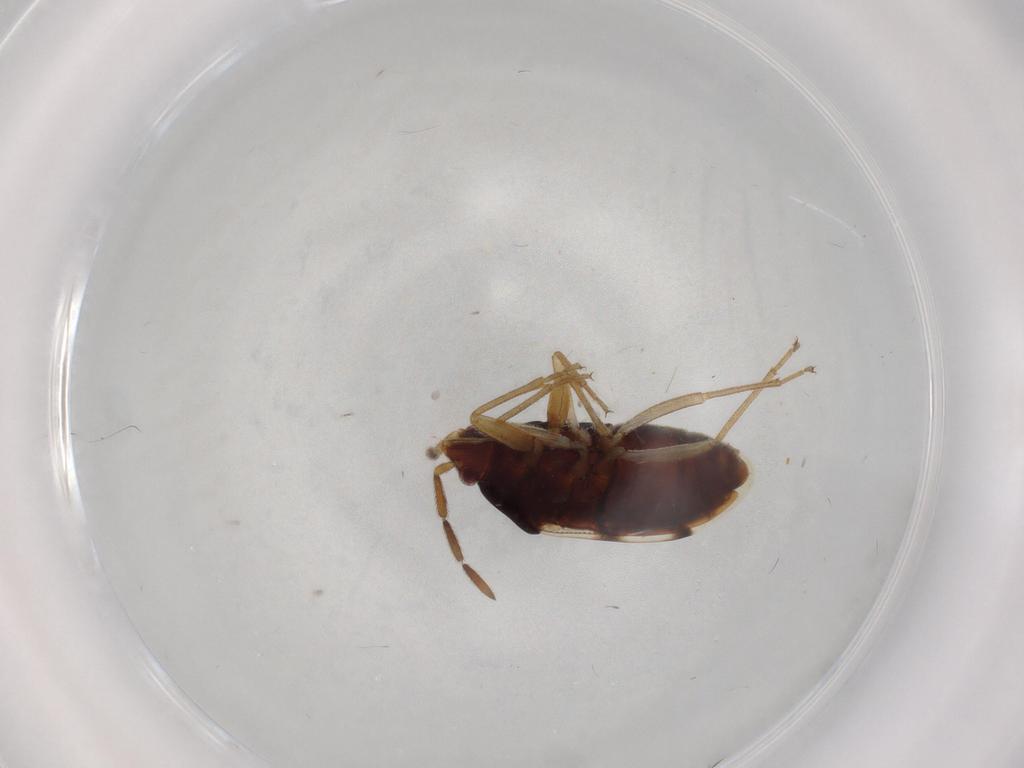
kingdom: Animalia
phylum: Arthropoda
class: Insecta
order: Hemiptera
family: Rhyparochromidae
